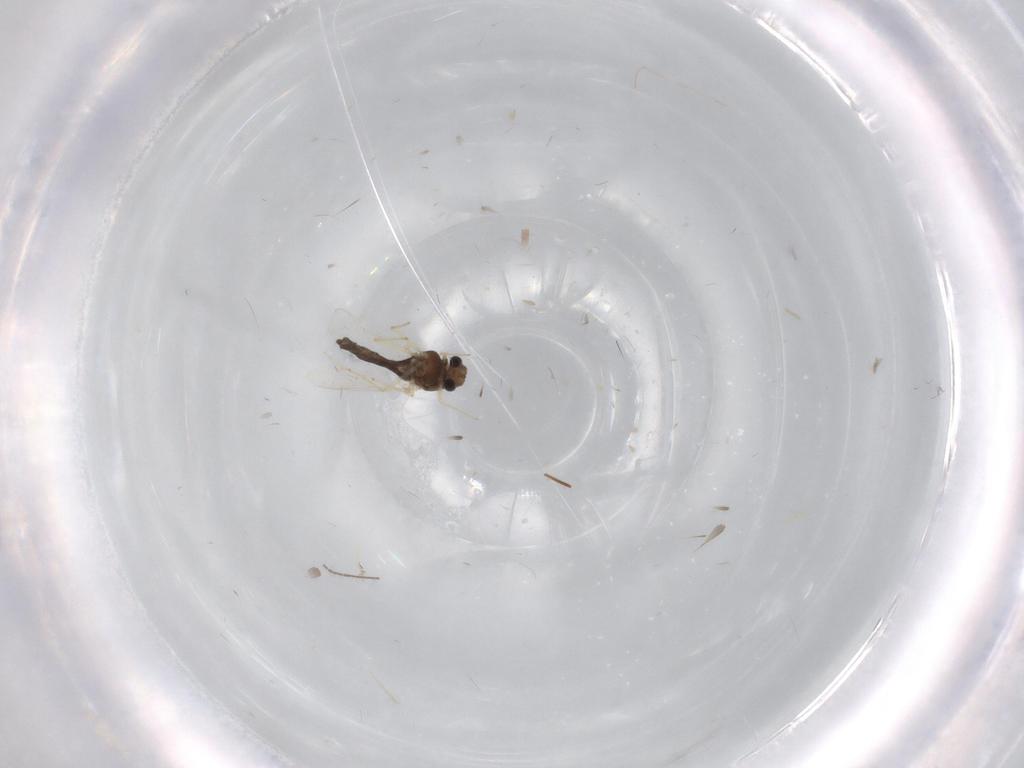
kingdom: Animalia
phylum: Arthropoda
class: Insecta
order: Diptera
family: Chironomidae
